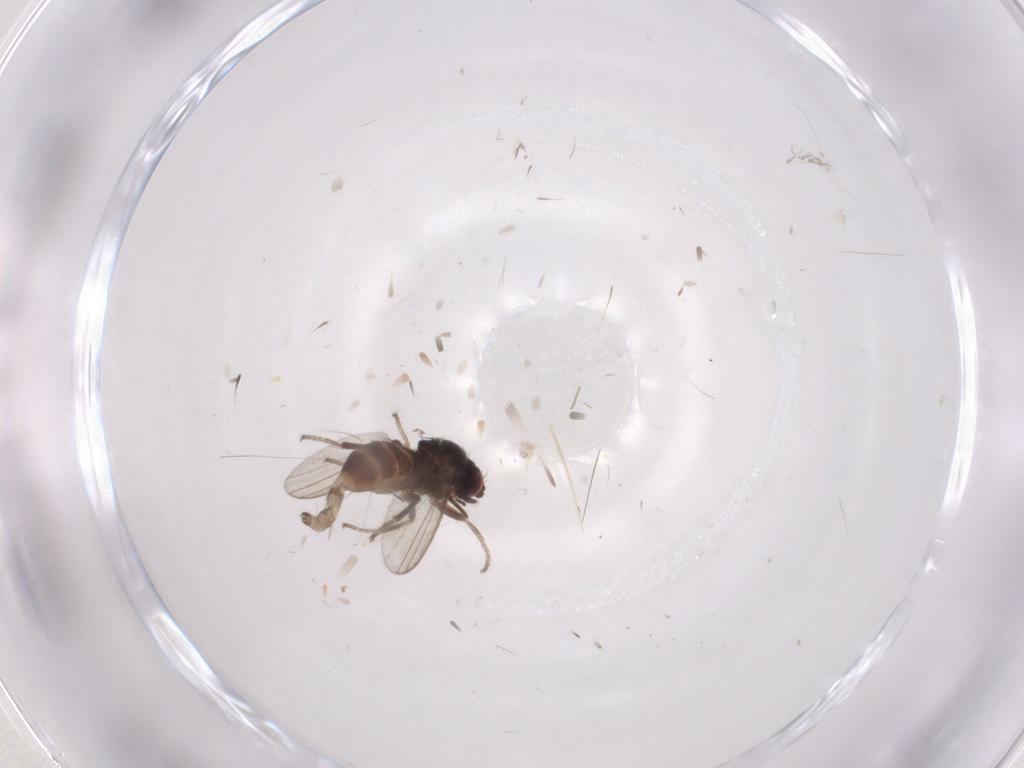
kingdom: Animalia
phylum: Arthropoda
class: Insecta
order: Diptera
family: Milichiidae
